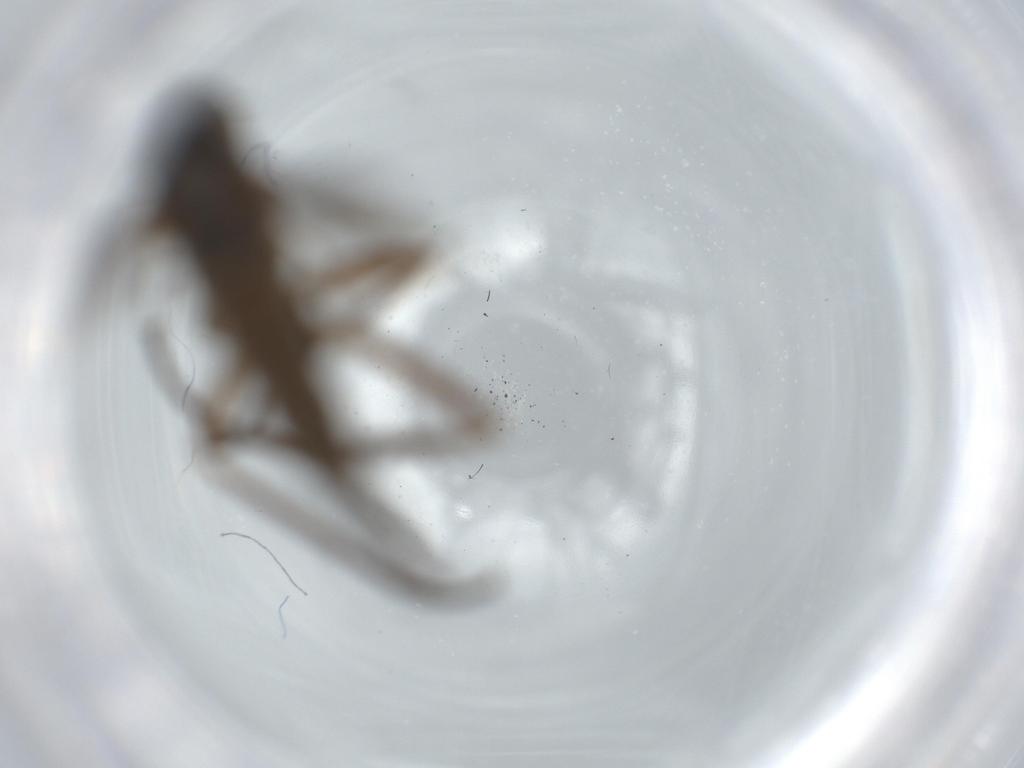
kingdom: Animalia
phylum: Arthropoda
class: Insecta
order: Diptera
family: Empididae
